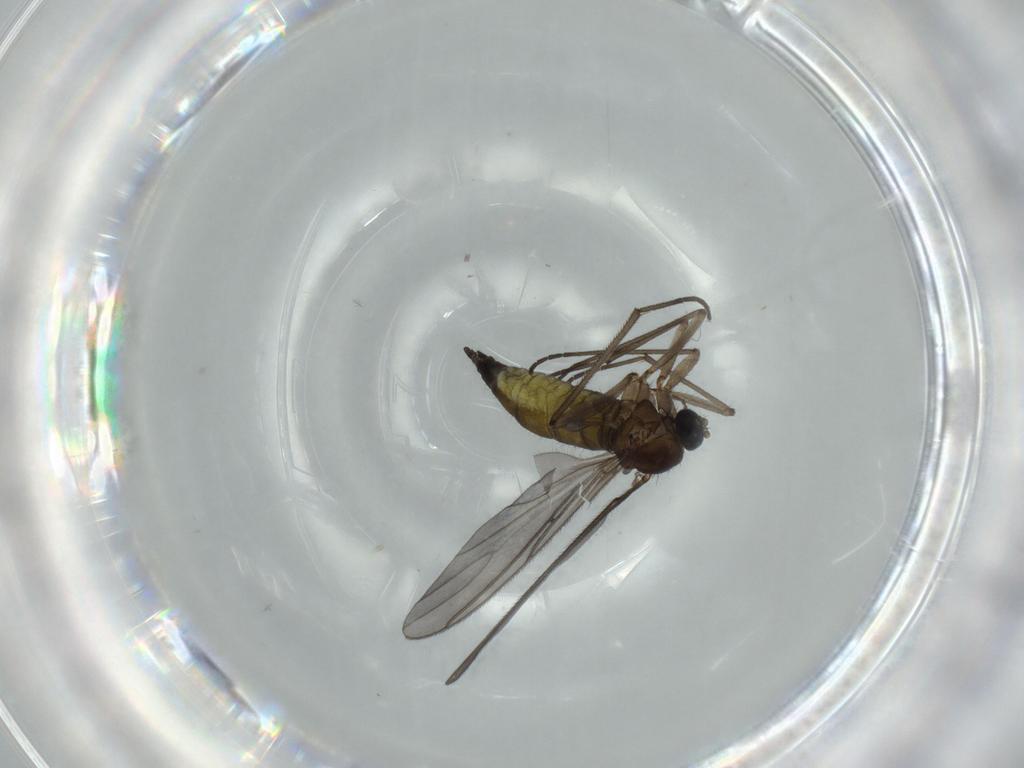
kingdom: Animalia
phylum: Arthropoda
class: Insecta
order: Diptera
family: Sciaridae
